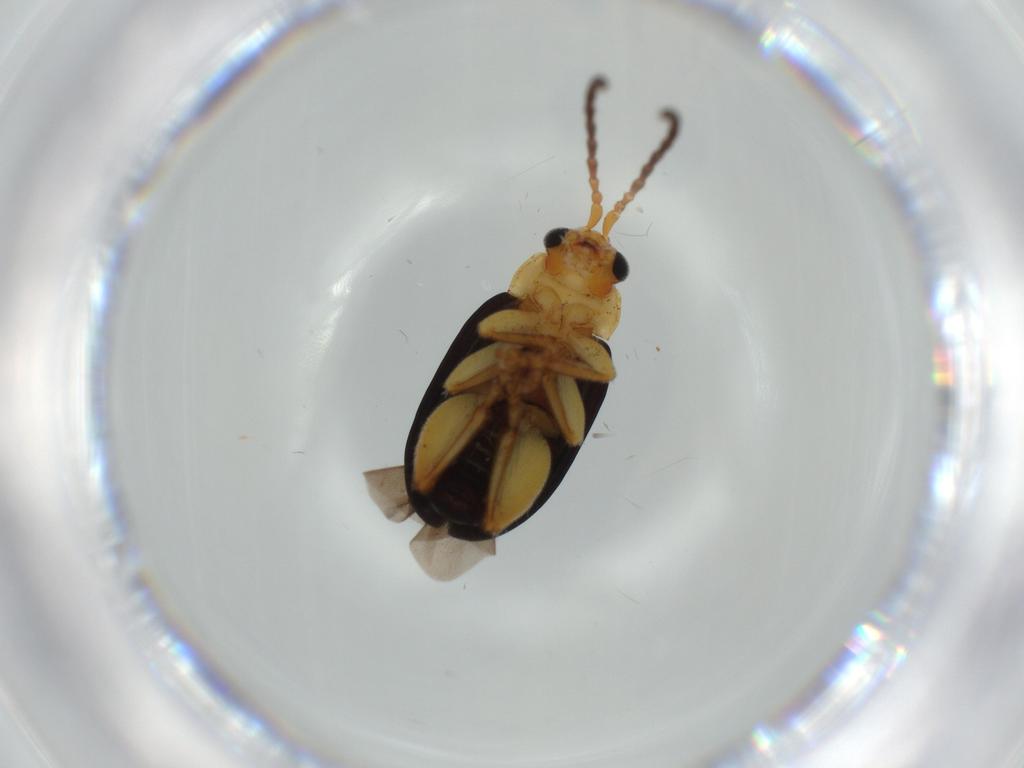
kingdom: Animalia
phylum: Arthropoda
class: Insecta
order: Coleoptera
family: Chrysomelidae
